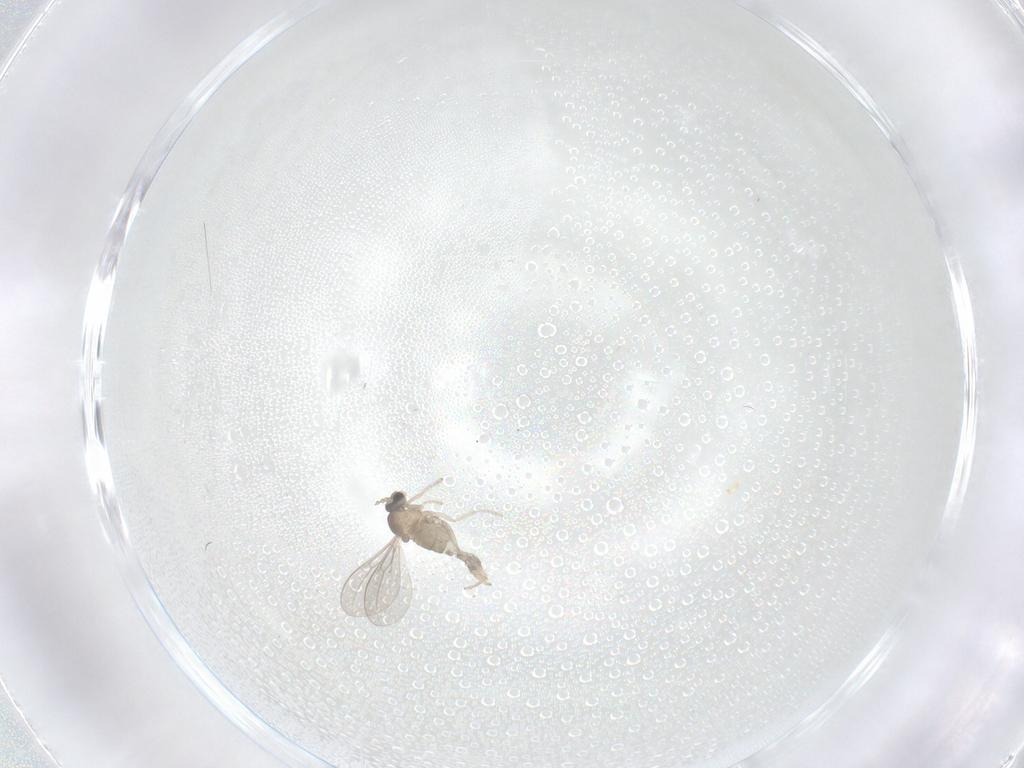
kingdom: Animalia
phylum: Arthropoda
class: Insecta
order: Diptera
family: Cecidomyiidae
